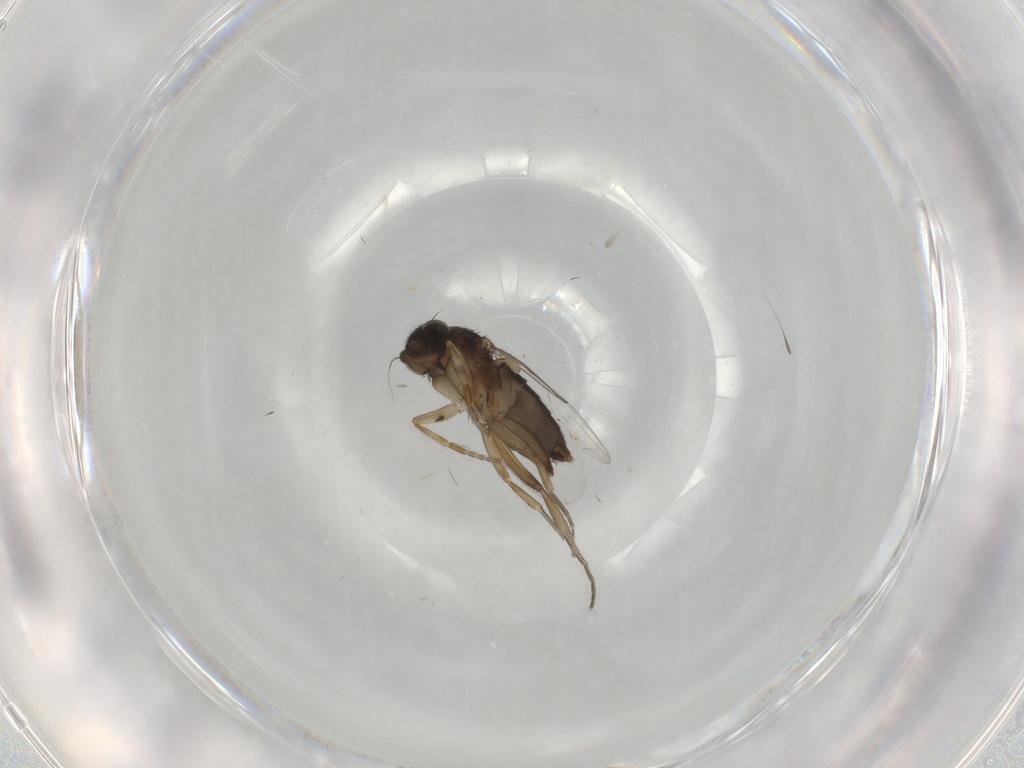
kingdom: Animalia
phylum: Arthropoda
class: Insecta
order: Diptera
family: Phoridae
